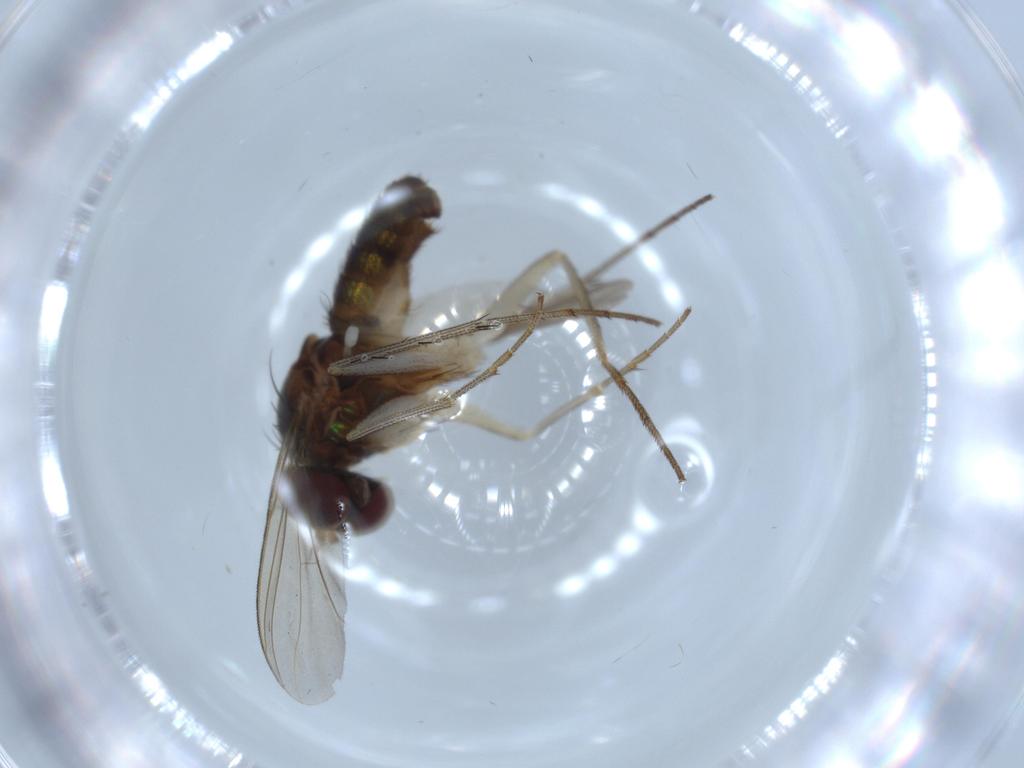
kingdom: Animalia
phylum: Arthropoda
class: Insecta
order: Diptera
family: Dolichopodidae
